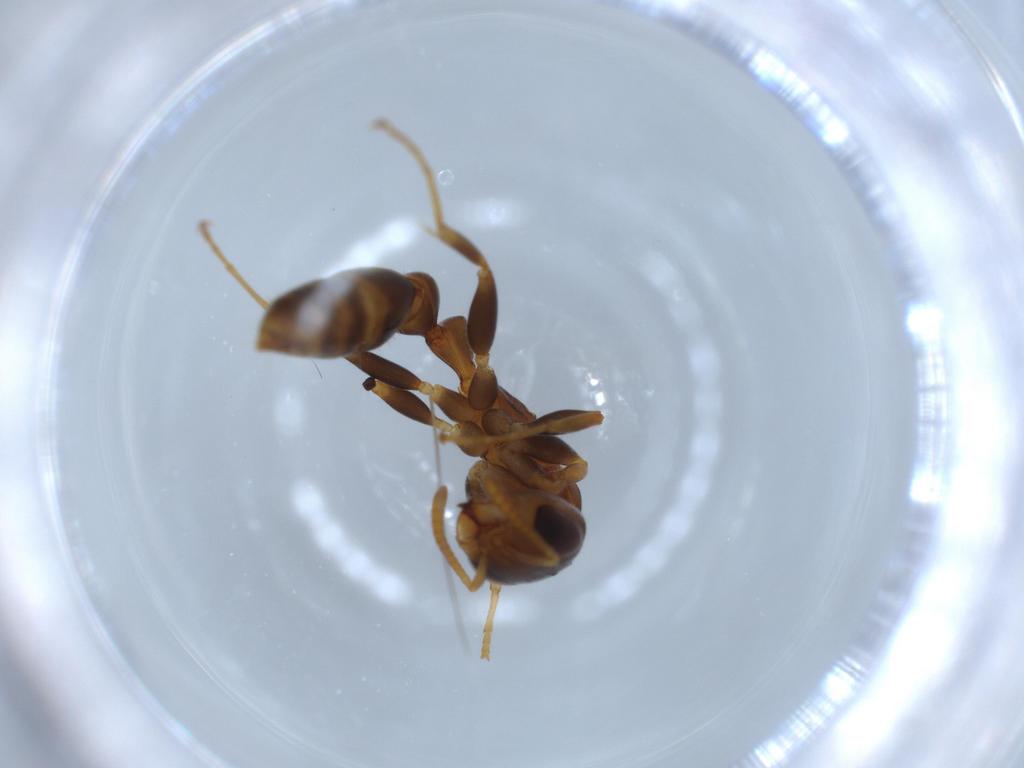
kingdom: Animalia
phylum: Arthropoda
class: Insecta
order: Hymenoptera
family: Formicidae
